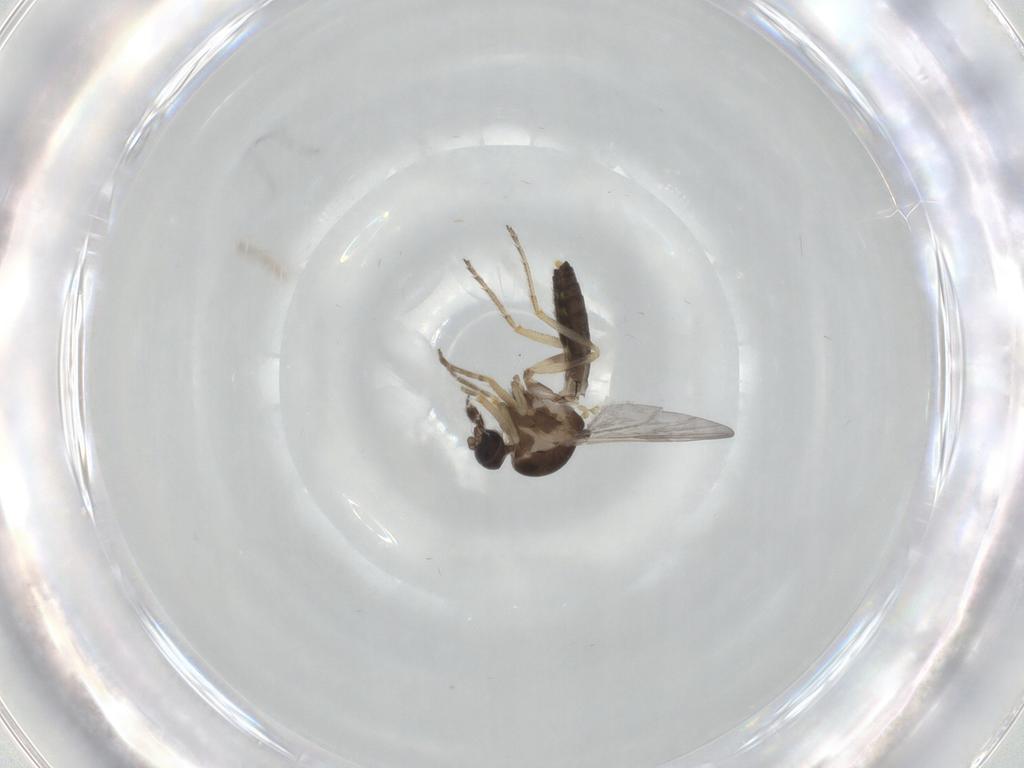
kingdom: Animalia
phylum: Arthropoda
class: Insecta
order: Diptera
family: Ceratopogonidae
